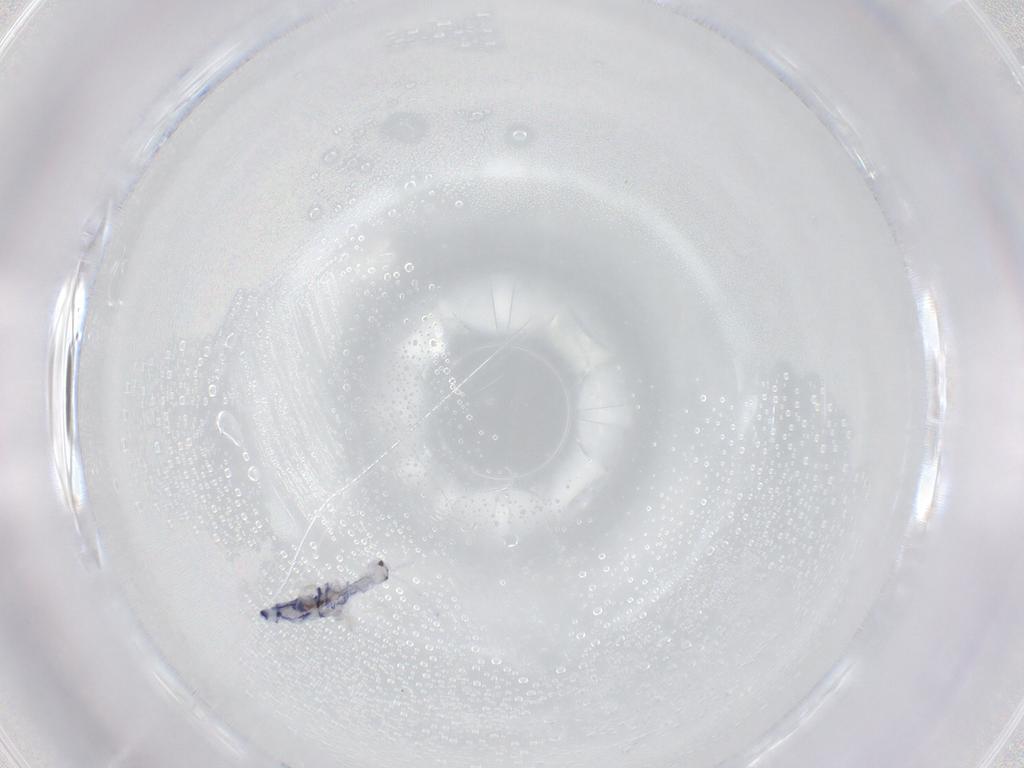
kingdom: Animalia
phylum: Arthropoda
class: Collembola
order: Entomobryomorpha
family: Entomobryidae
